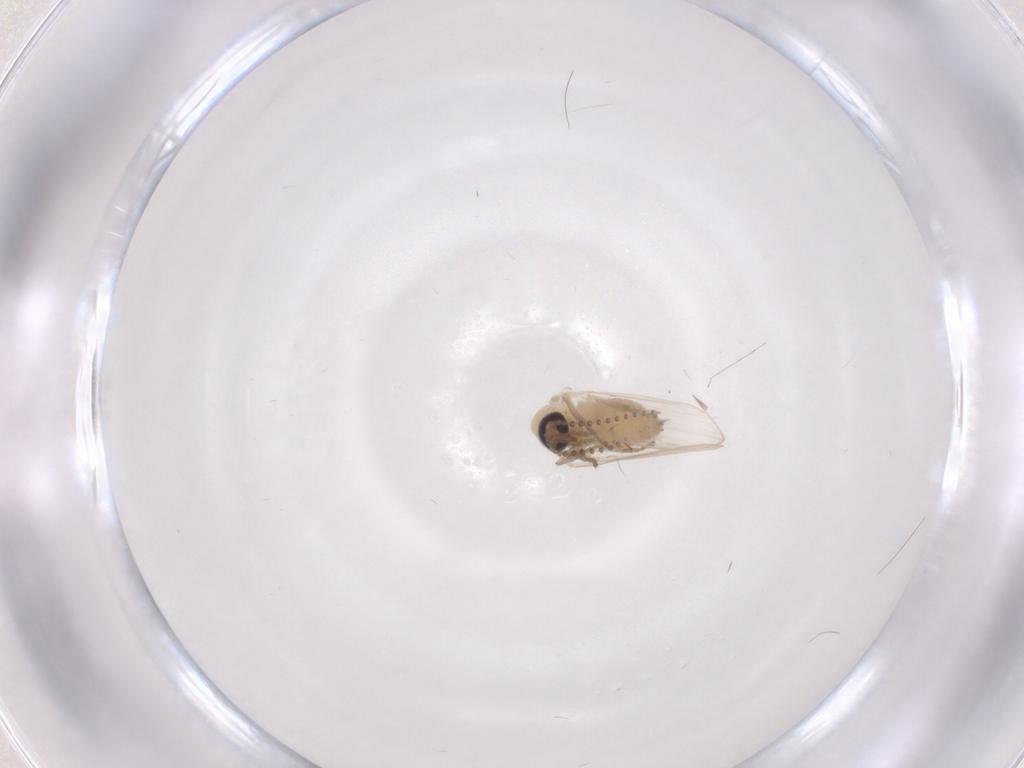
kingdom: Animalia
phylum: Arthropoda
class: Insecta
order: Diptera
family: Psychodidae
